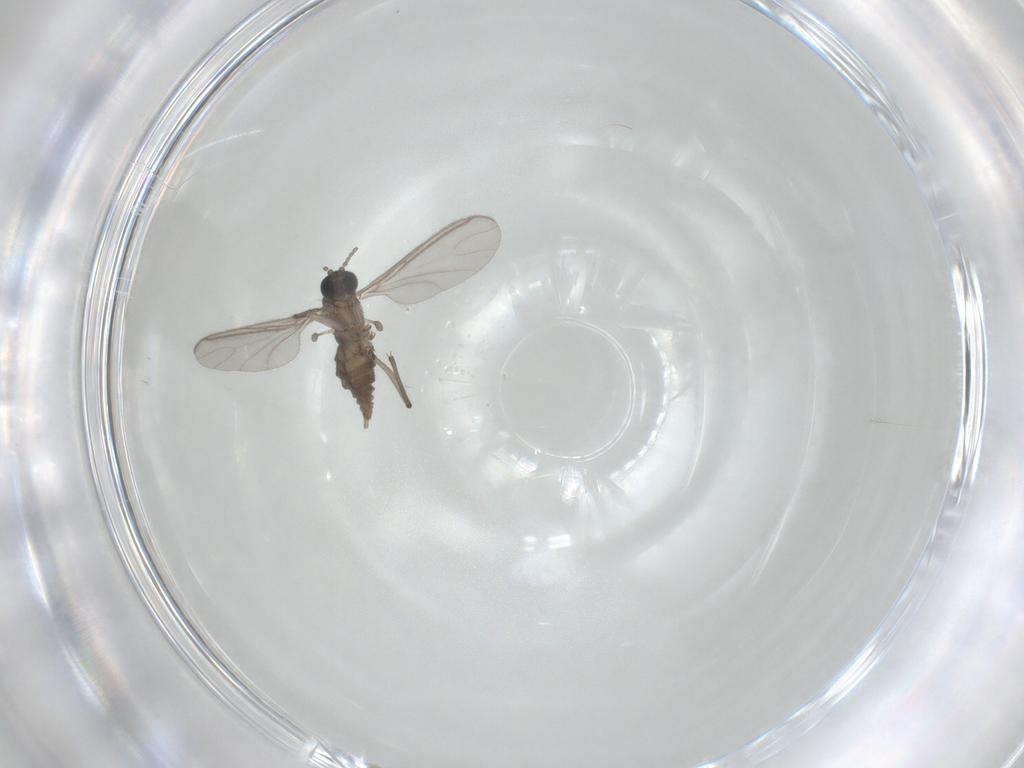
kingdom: Animalia
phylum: Arthropoda
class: Insecta
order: Diptera
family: Sciaridae
